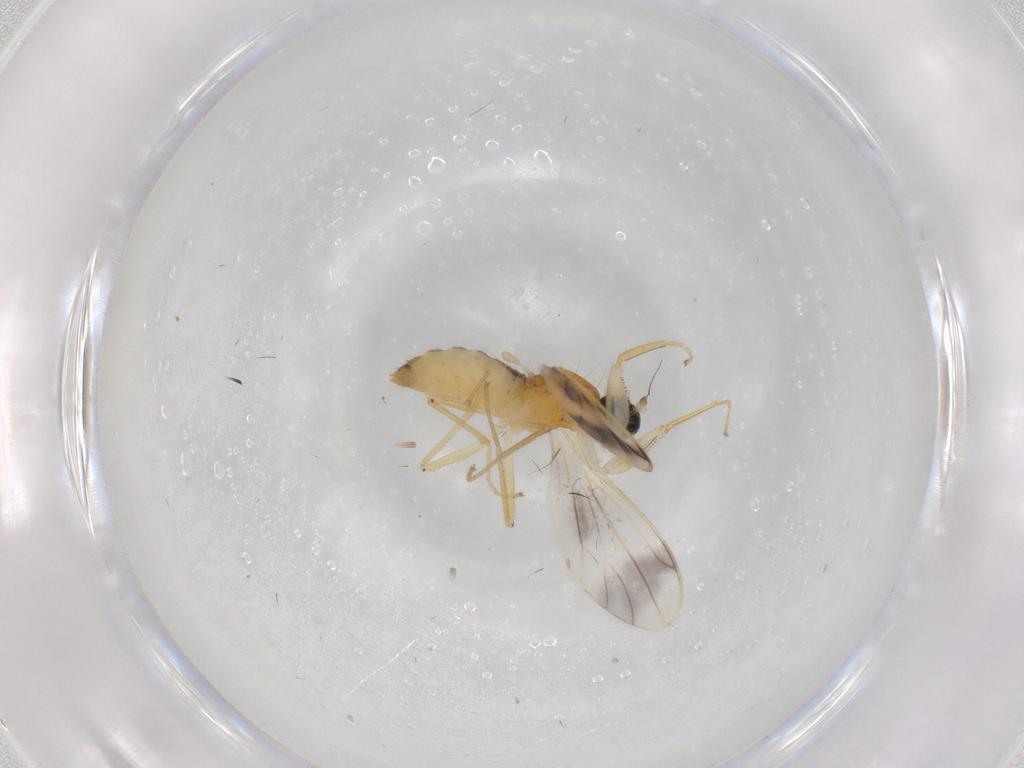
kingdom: Animalia
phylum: Arthropoda
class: Insecta
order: Diptera
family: Empididae
